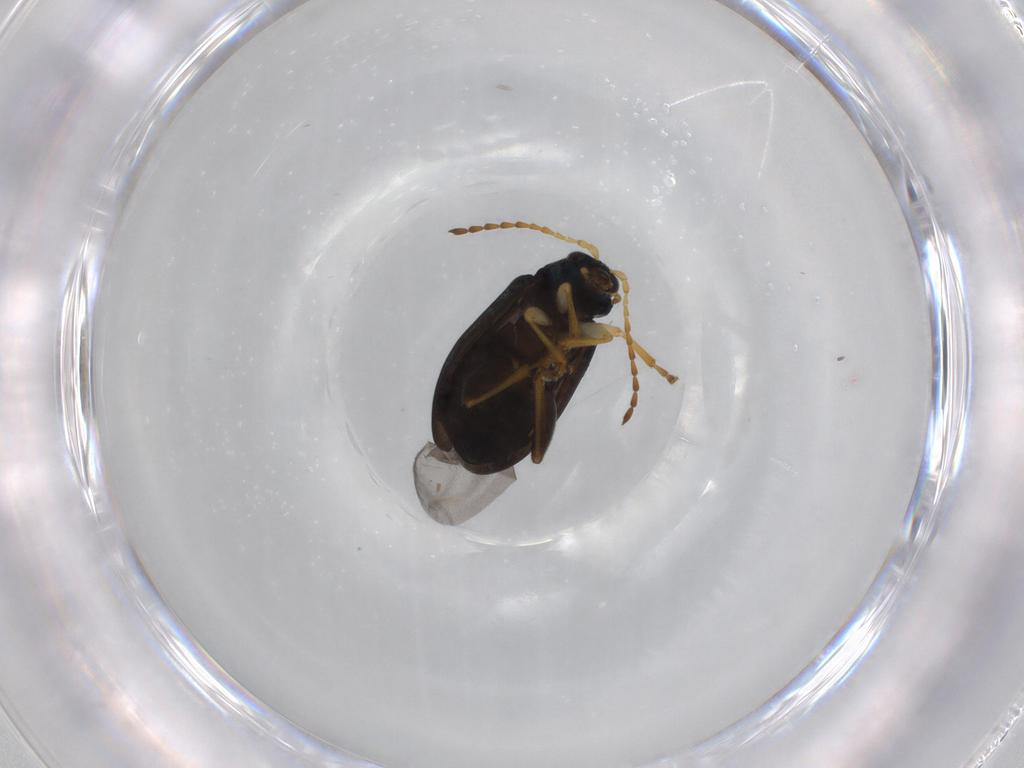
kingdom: Animalia
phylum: Arthropoda
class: Insecta
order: Coleoptera
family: Chrysomelidae
